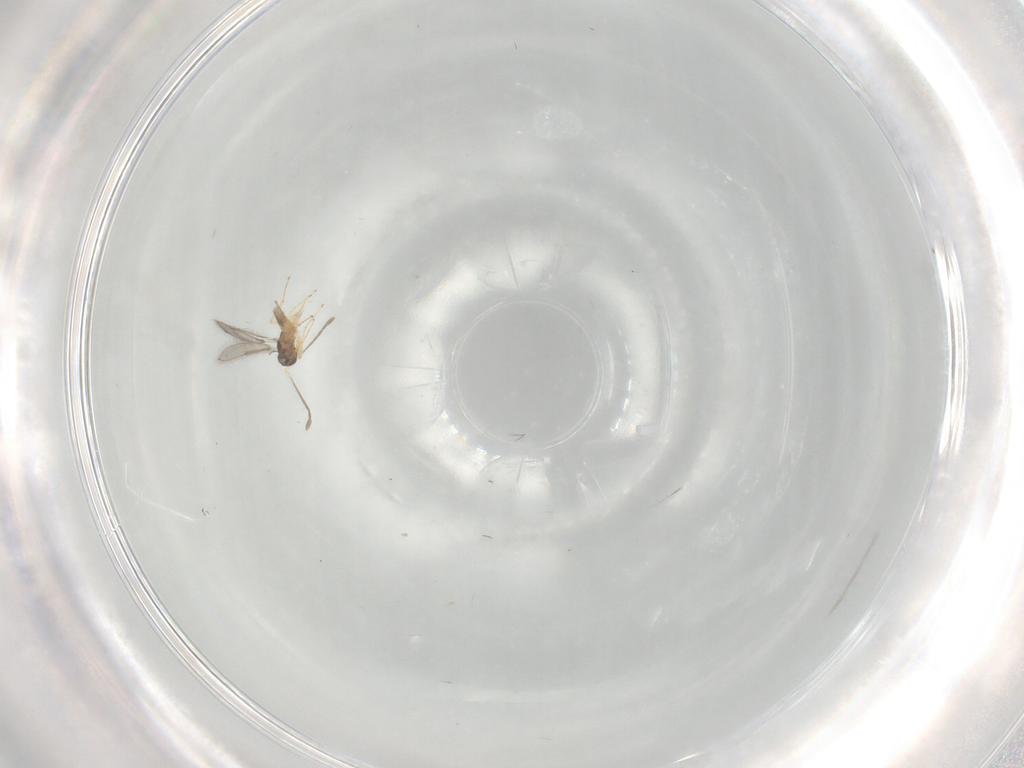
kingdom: Animalia
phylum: Arthropoda
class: Insecta
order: Hymenoptera
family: Mymaridae
